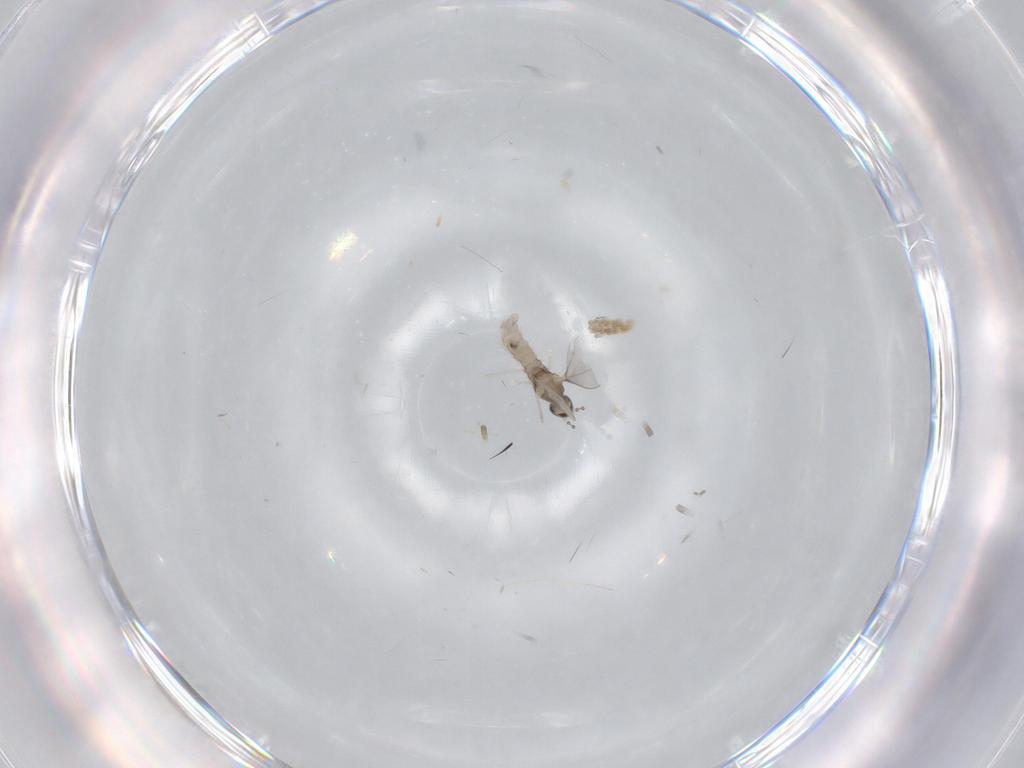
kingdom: Animalia
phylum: Arthropoda
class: Insecta
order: Diptera
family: Cecidomyiidae
